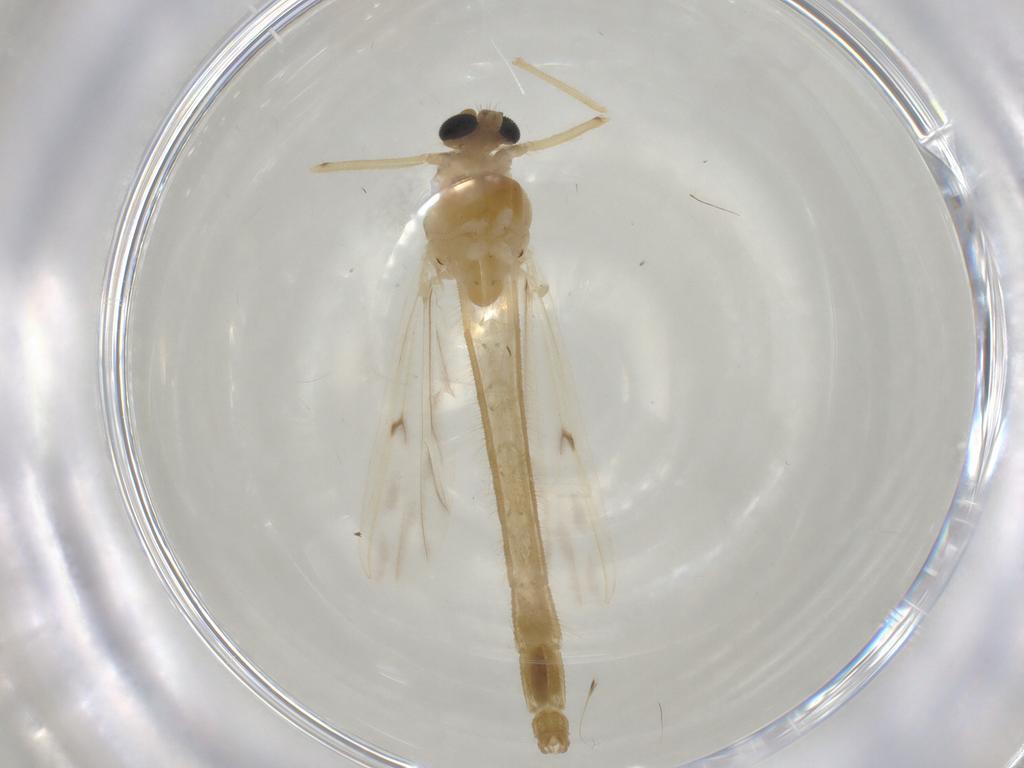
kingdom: Animalia
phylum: Arthropoda
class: Insecta
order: Diptera
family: Chironomidae
